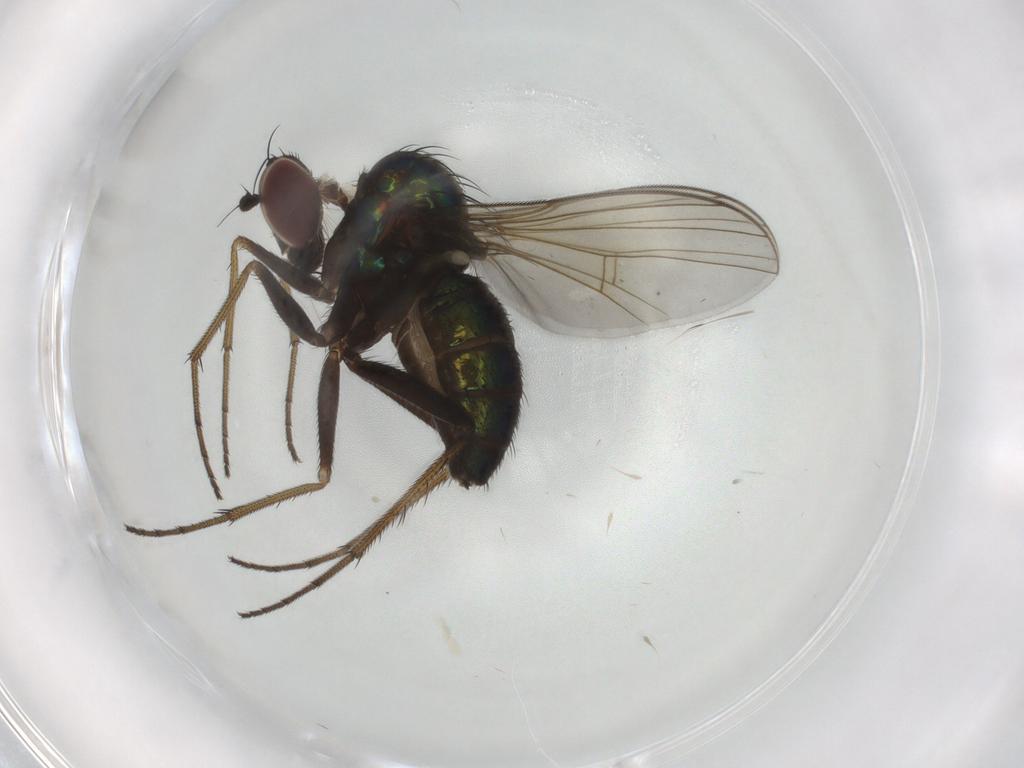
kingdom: Animalia
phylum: Arthropoda
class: Insecta
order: Diptera
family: Dolichopodidae
